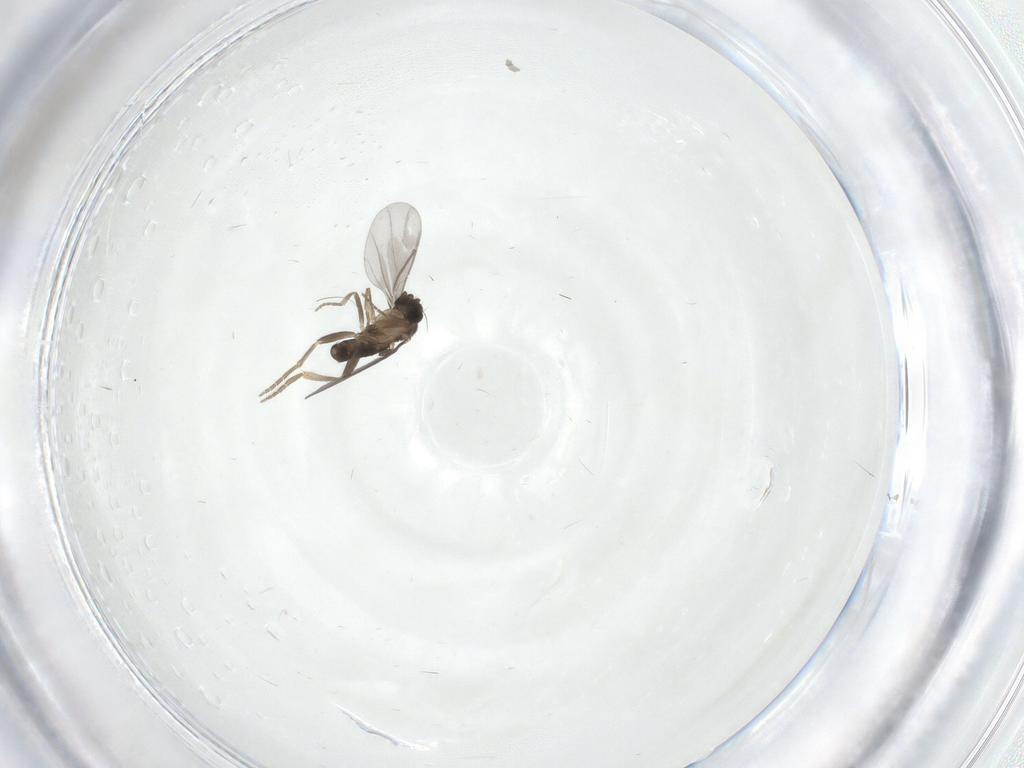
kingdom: Animalia
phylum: Arthropoda
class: Insecta
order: Diptera
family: Phoridae
